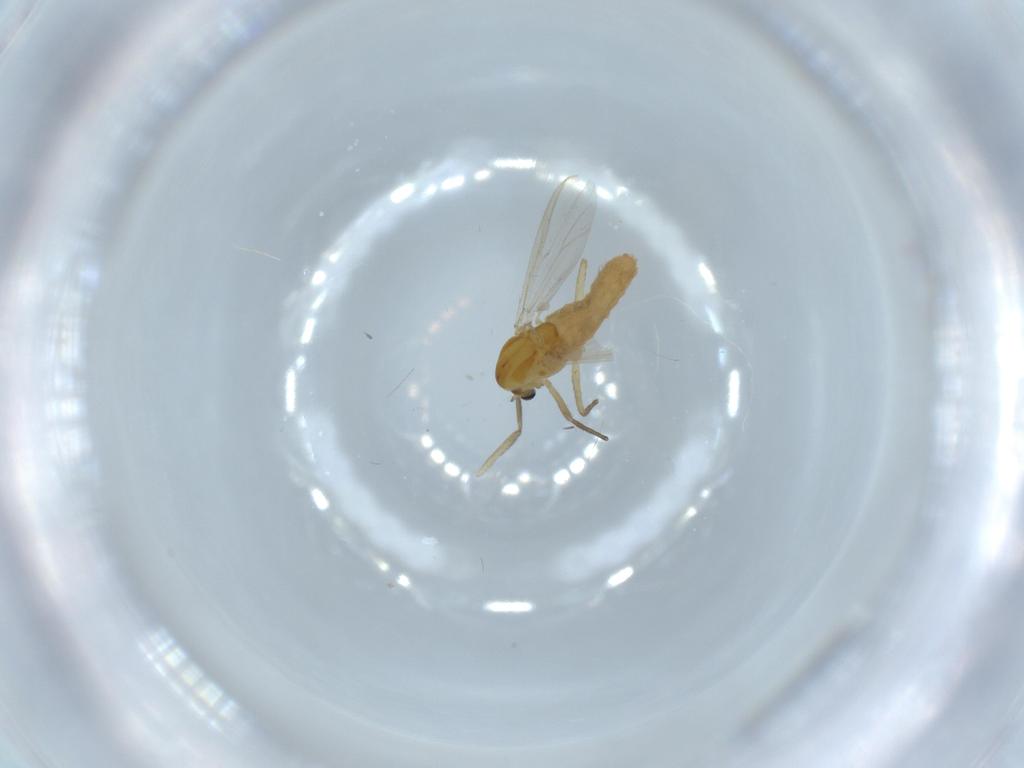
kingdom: Animalia
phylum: Arthropoda
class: Insecta
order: Diptera
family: Chironomidae
